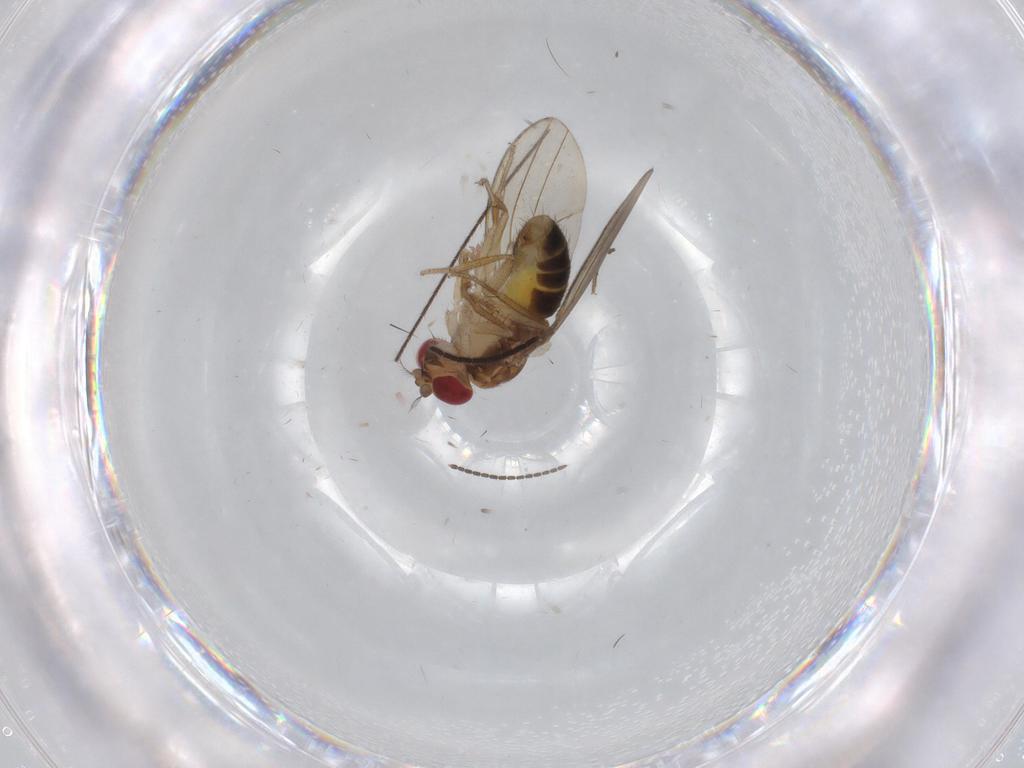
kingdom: Animalia
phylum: Arthropoda
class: Insecta
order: Diptera
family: Drosophilidae
